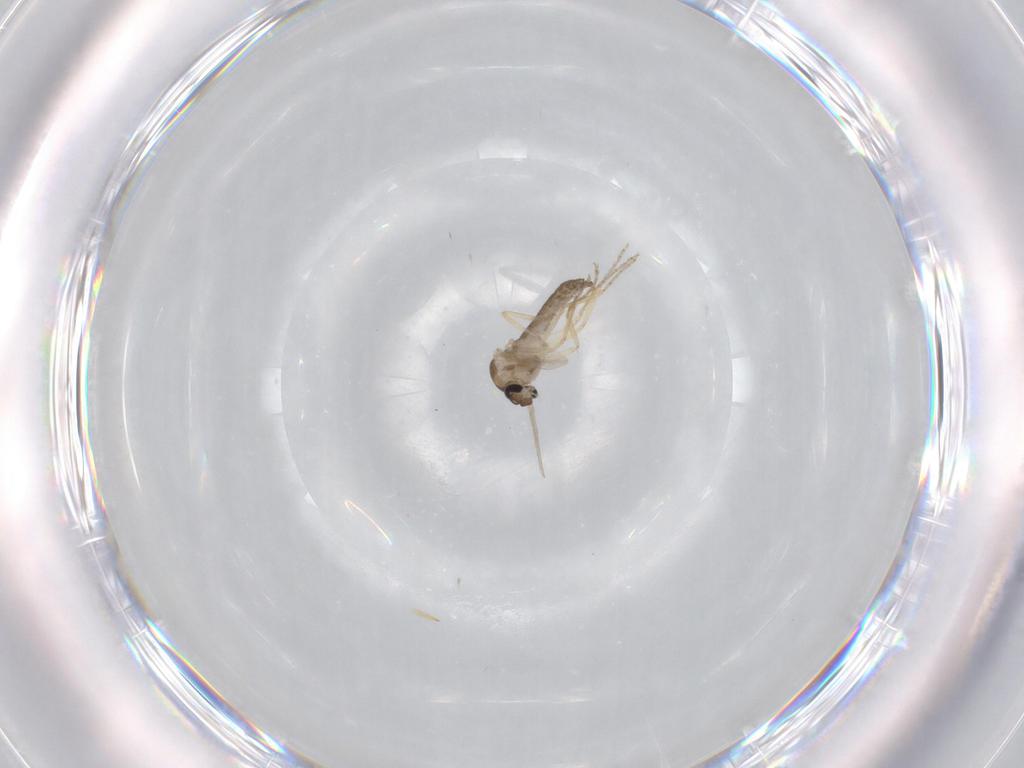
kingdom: Animalia
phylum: Arthropoda
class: Insecta
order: Diptera
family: Ceratopogonidae
